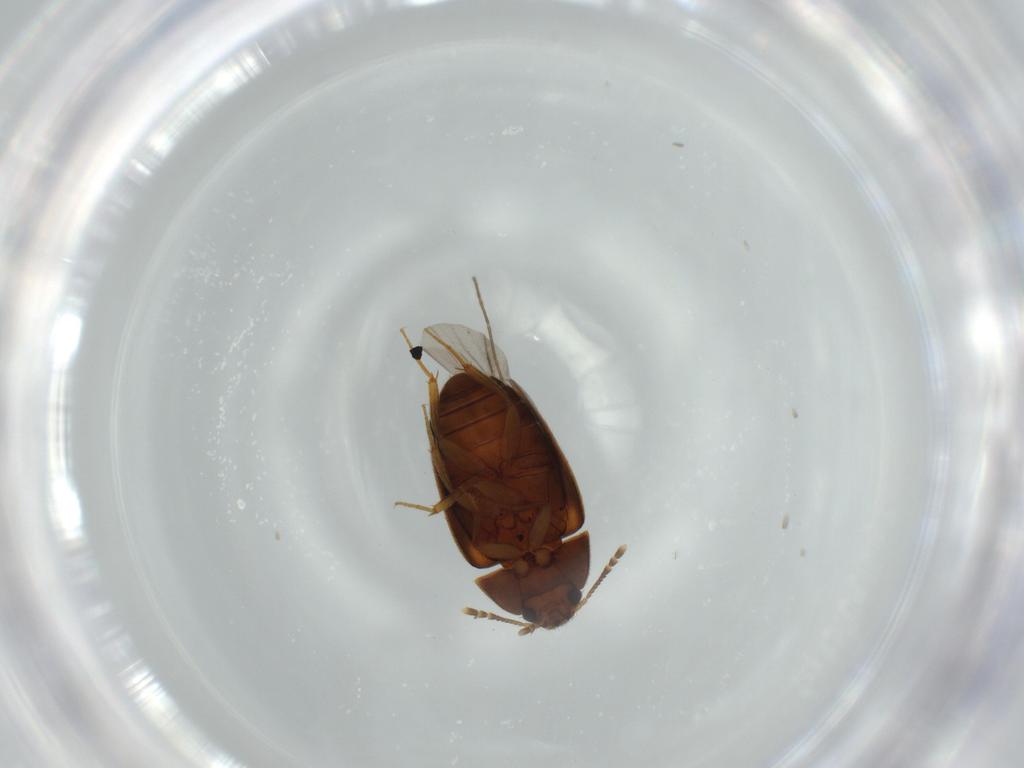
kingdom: Animalia
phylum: Arthropoda
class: Insecta
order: Coleoptera
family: Mycetophagidae
